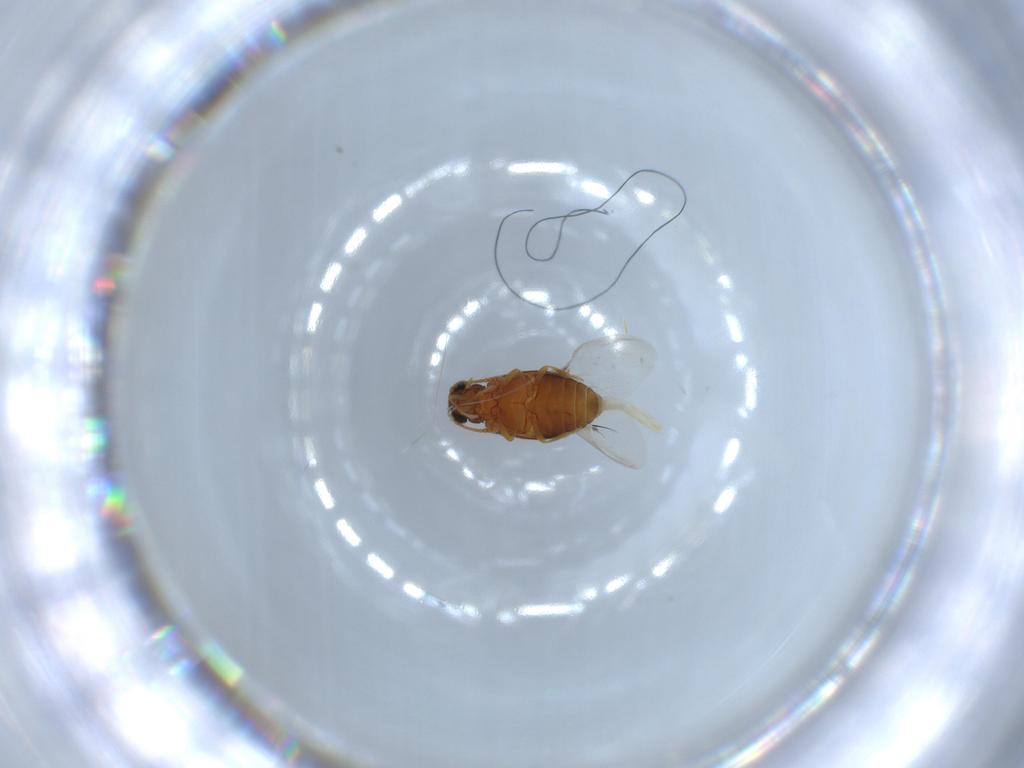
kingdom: Animalia
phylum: Arthropoda
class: Insecta
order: Coleoptera
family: Aderidae
